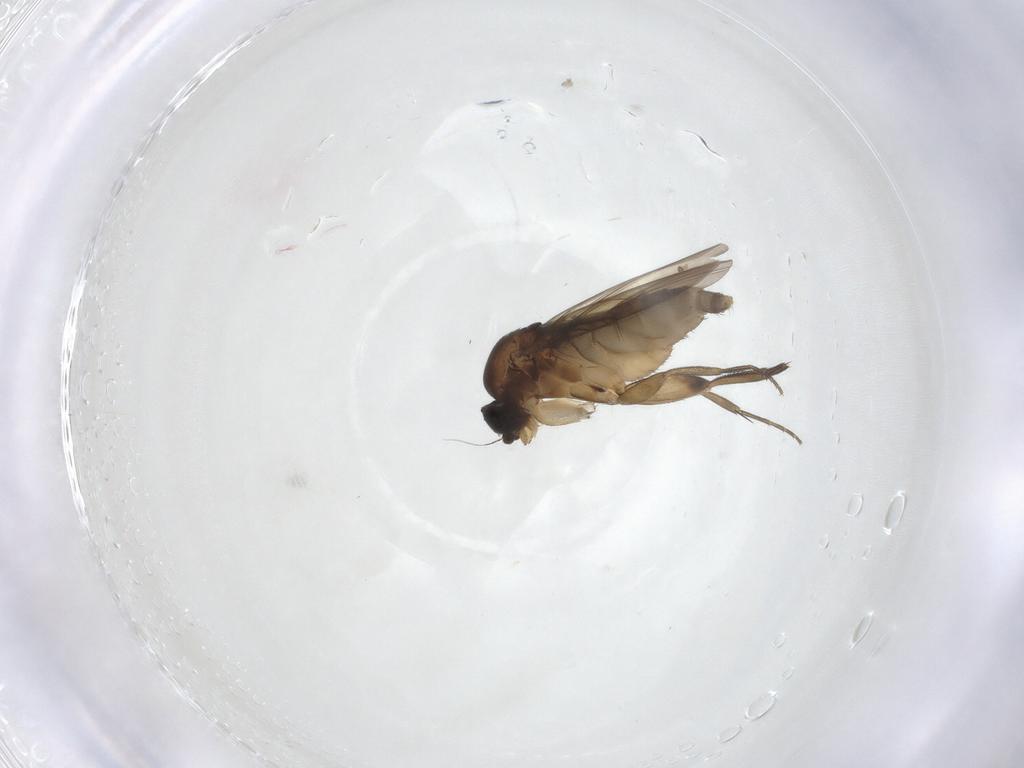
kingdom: Animalia
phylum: Arthropoda
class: Insecta
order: Diptera
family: Phoridae
